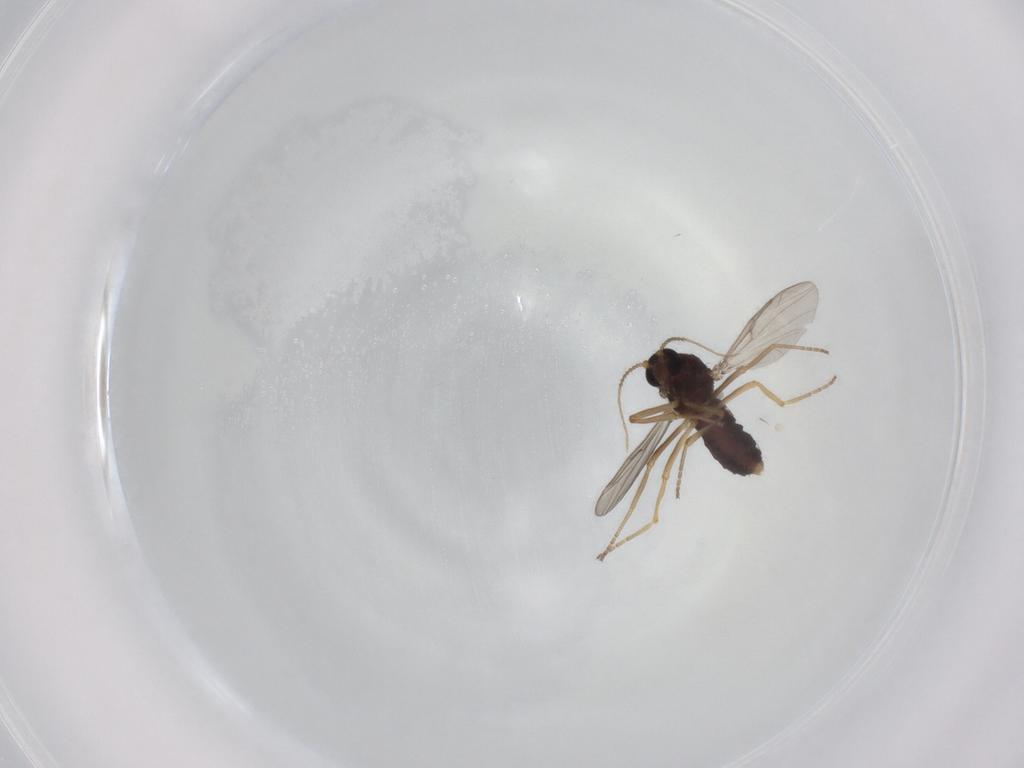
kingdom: Animalia
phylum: Arthropoda
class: Insecta
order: Diptera
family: Ceratopogonidae
